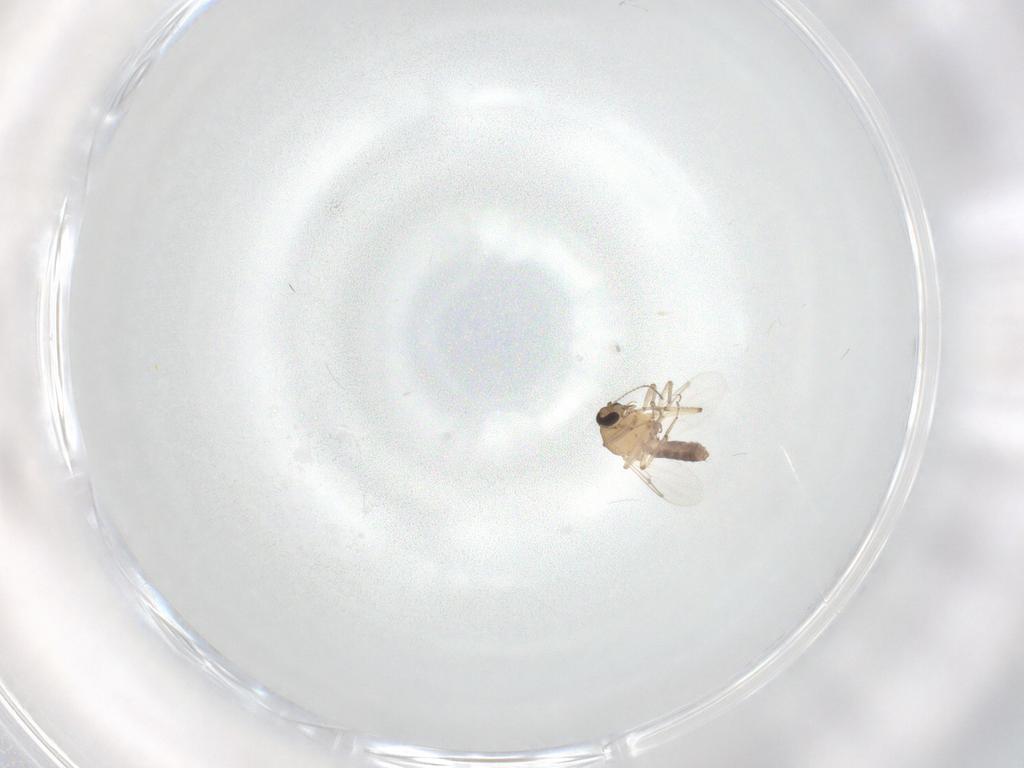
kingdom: Animalia
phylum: Arthropoda
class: Insecta
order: Diptera
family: Ceratopogonidae
